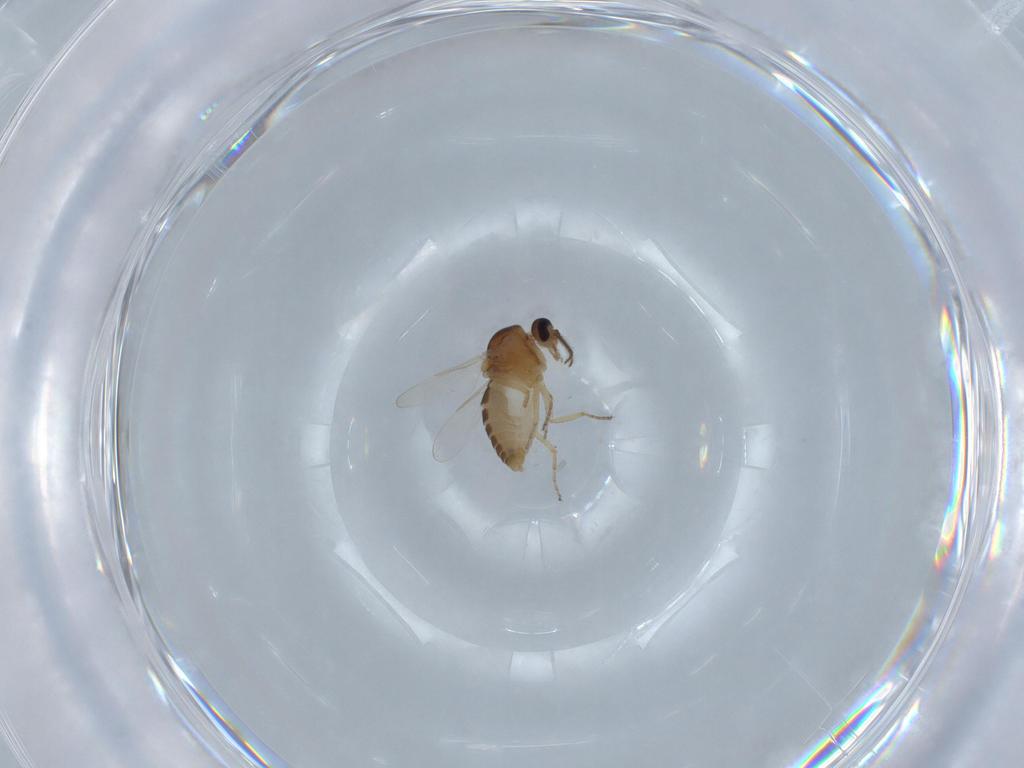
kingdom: Animalia
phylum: Arthropoda
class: Insecta
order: Diptera
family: Ceratopogonidae
